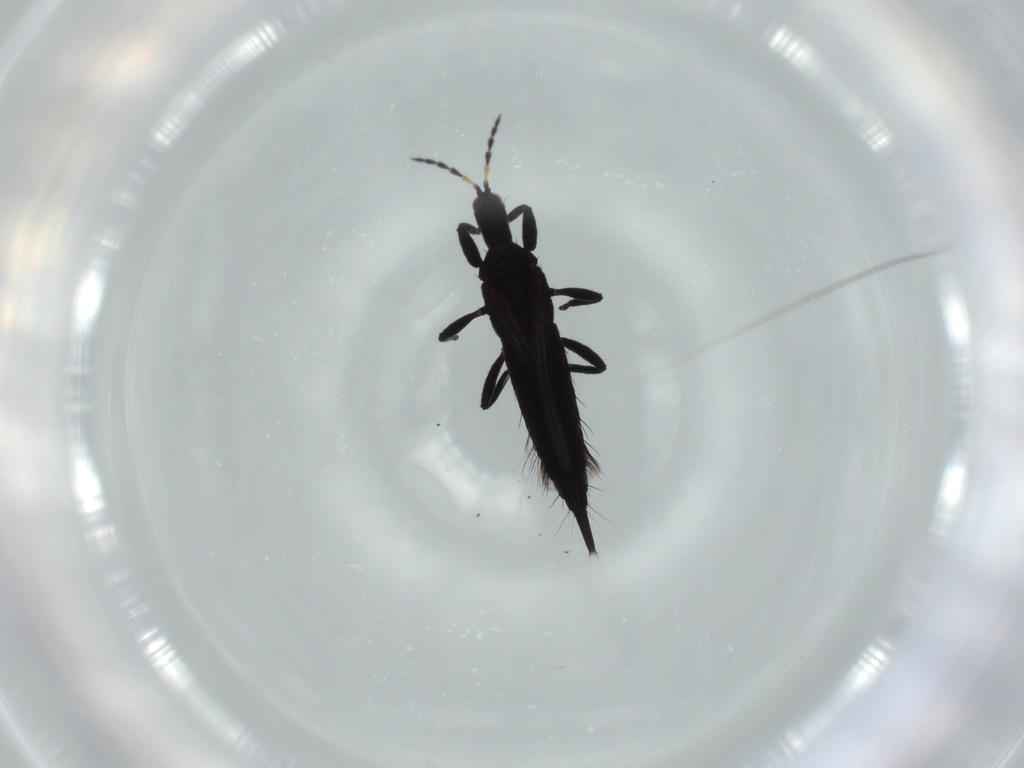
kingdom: Animalia
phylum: Arthropoda
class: Insecta
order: Thysanoptera
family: Phlaeothripidae
